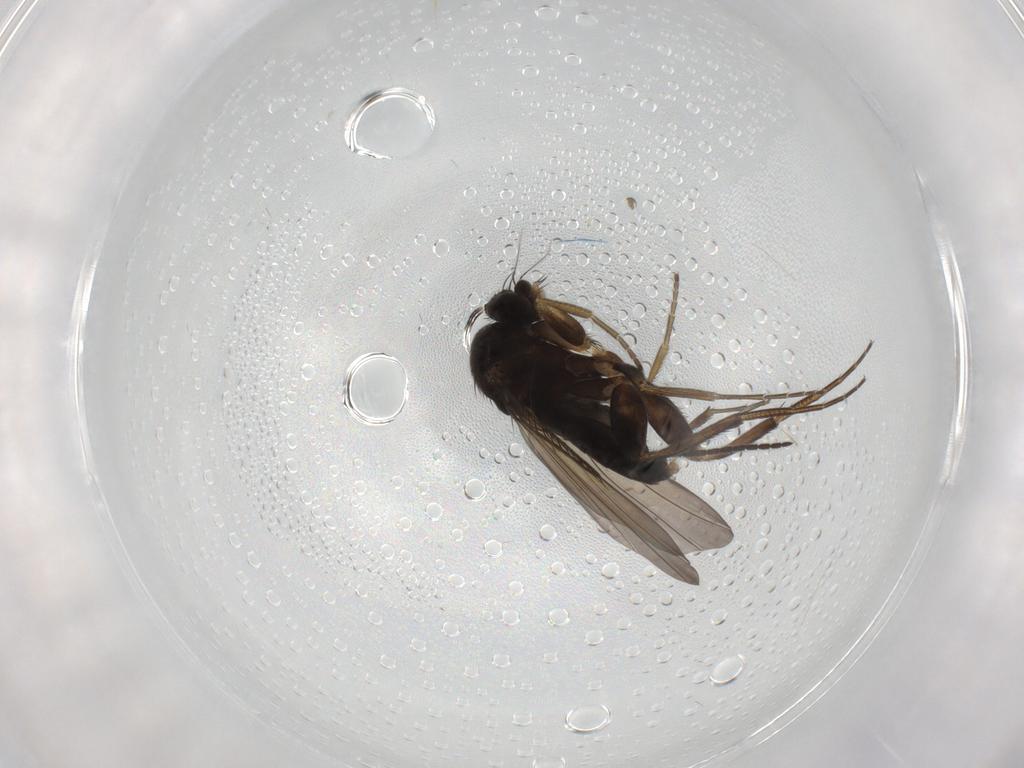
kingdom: Animalia
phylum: Arthropoda
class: Insecta
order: Diptera
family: Phoridae
